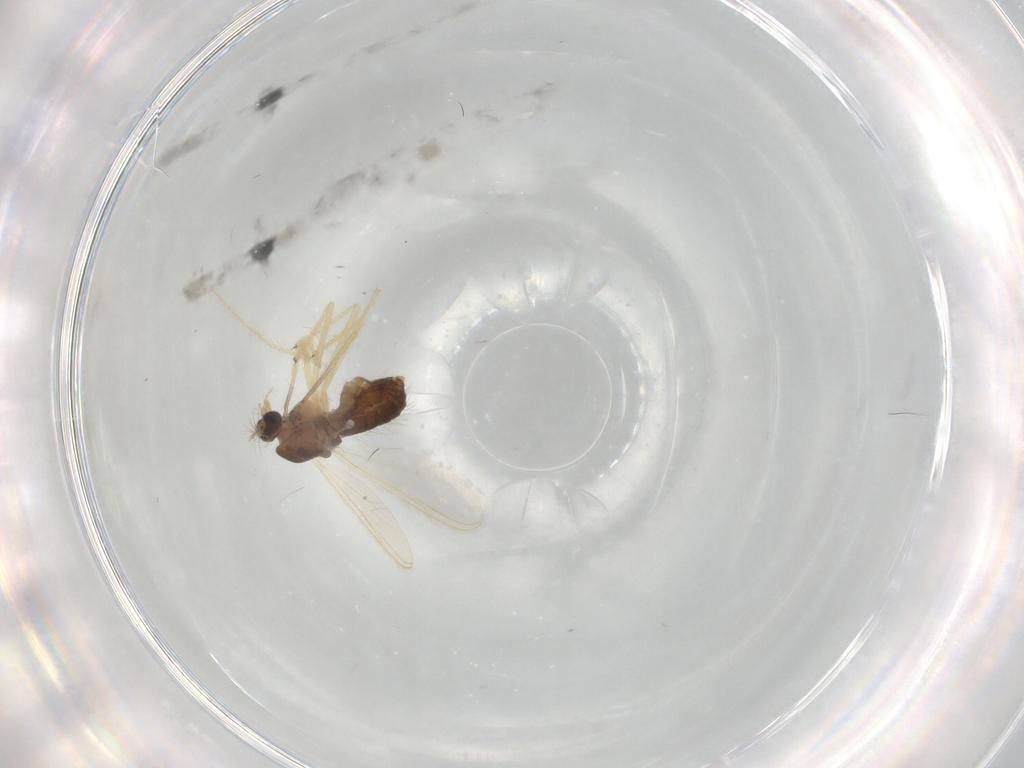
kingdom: Animalia
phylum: Arthropoda
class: Insecta
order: Diptera
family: Chironomidae
